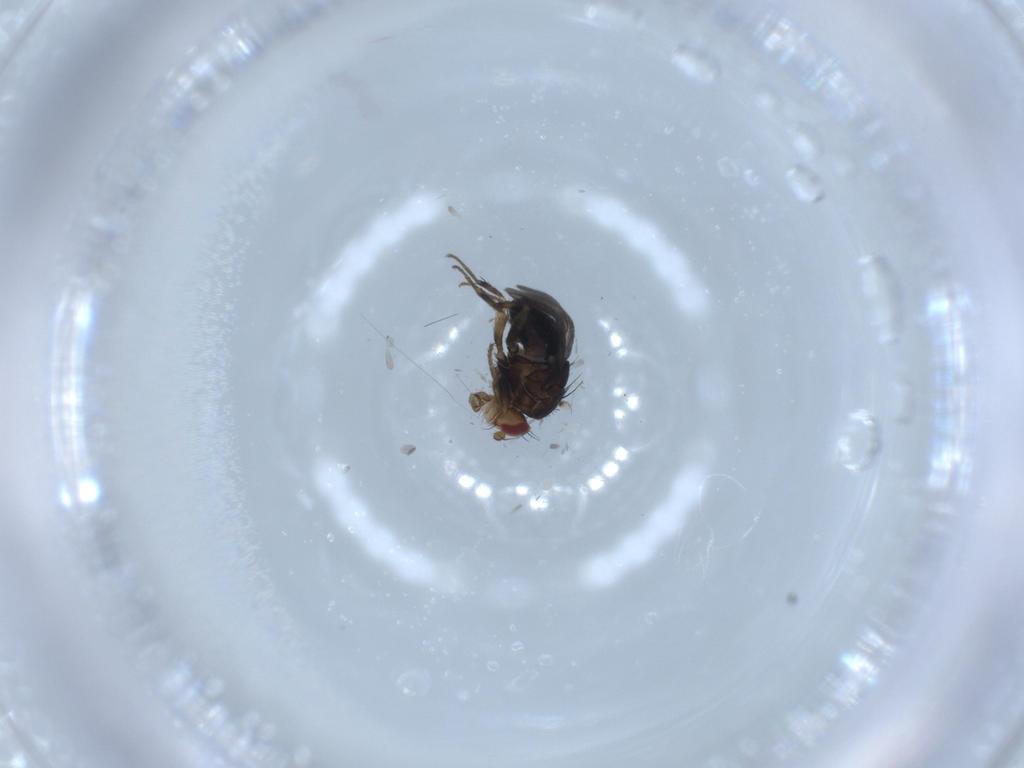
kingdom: Animalia
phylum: Arthropoda
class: Insecta
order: Diptera
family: Sphaeroceridae
